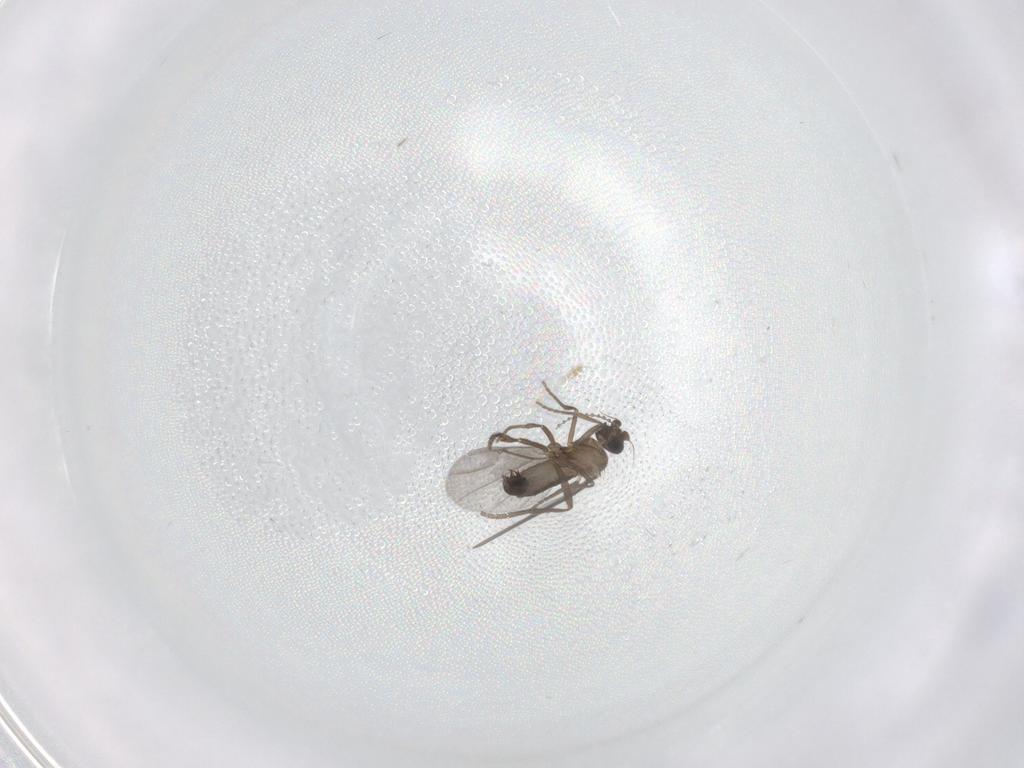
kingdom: Animalia
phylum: Arthropoda
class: Insecta
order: Diptera
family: Phoridae
